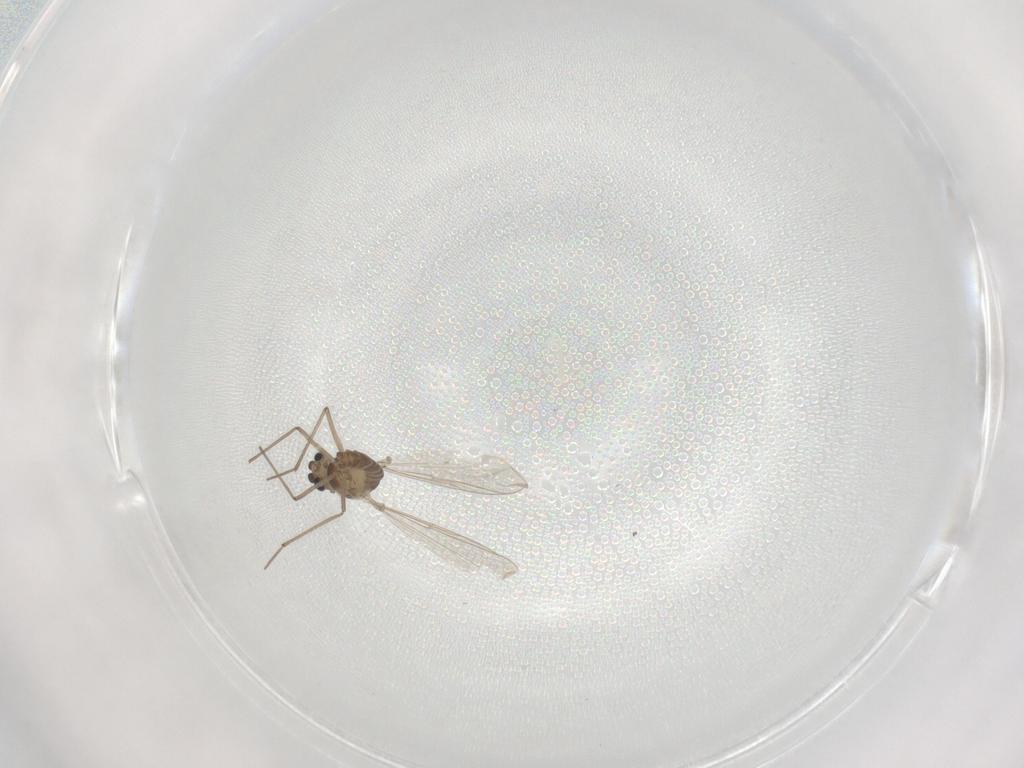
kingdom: Animalia
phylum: Arthropoda
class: Insecta
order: Diptera
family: Chironomidae
